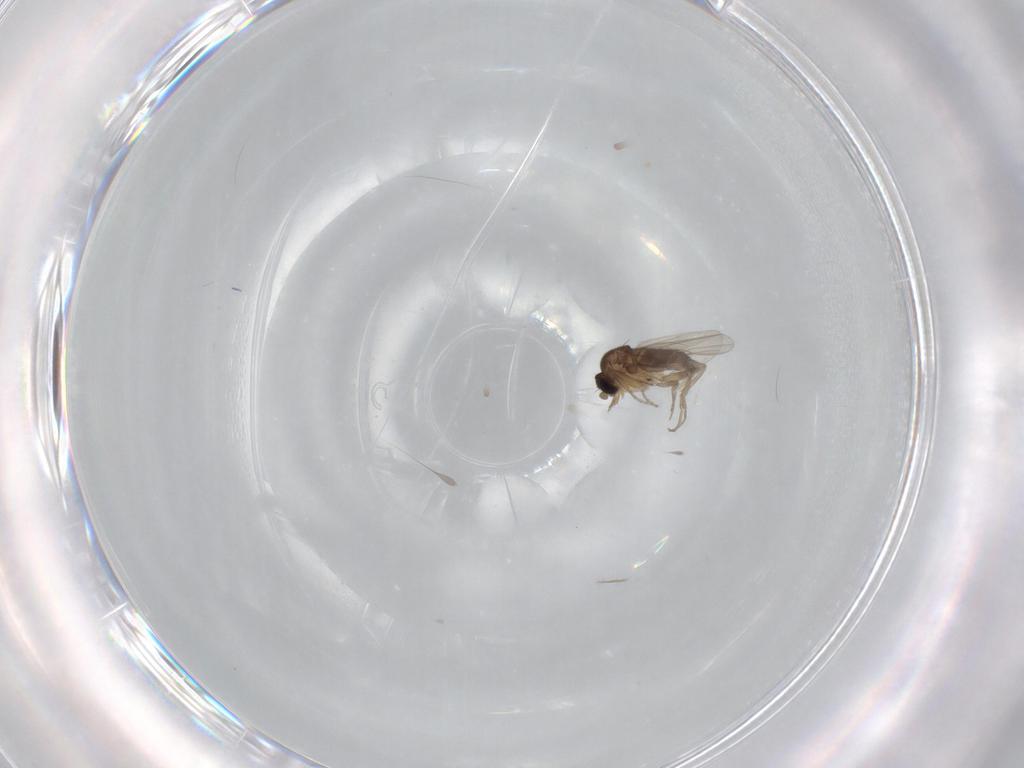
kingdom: Animalia
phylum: Arthropoda
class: Insecta
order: Diptera
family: Phoridae
